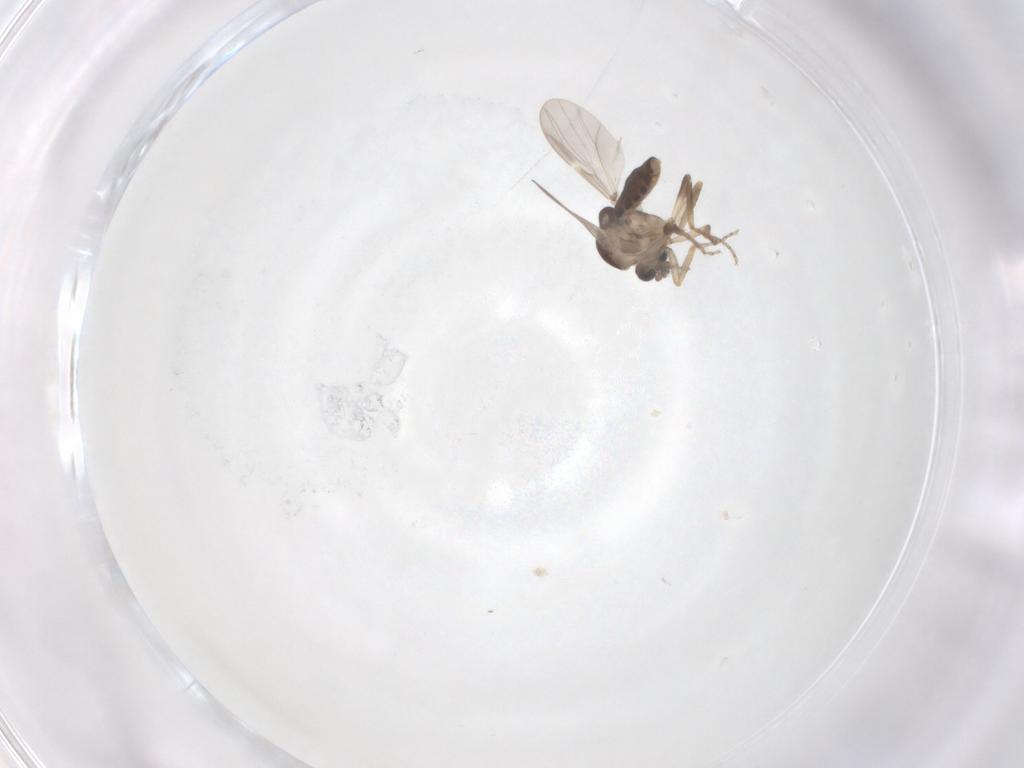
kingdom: Animalia
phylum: Arthropoda
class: Insecta
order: Diptera
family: Ceratopogonidae
